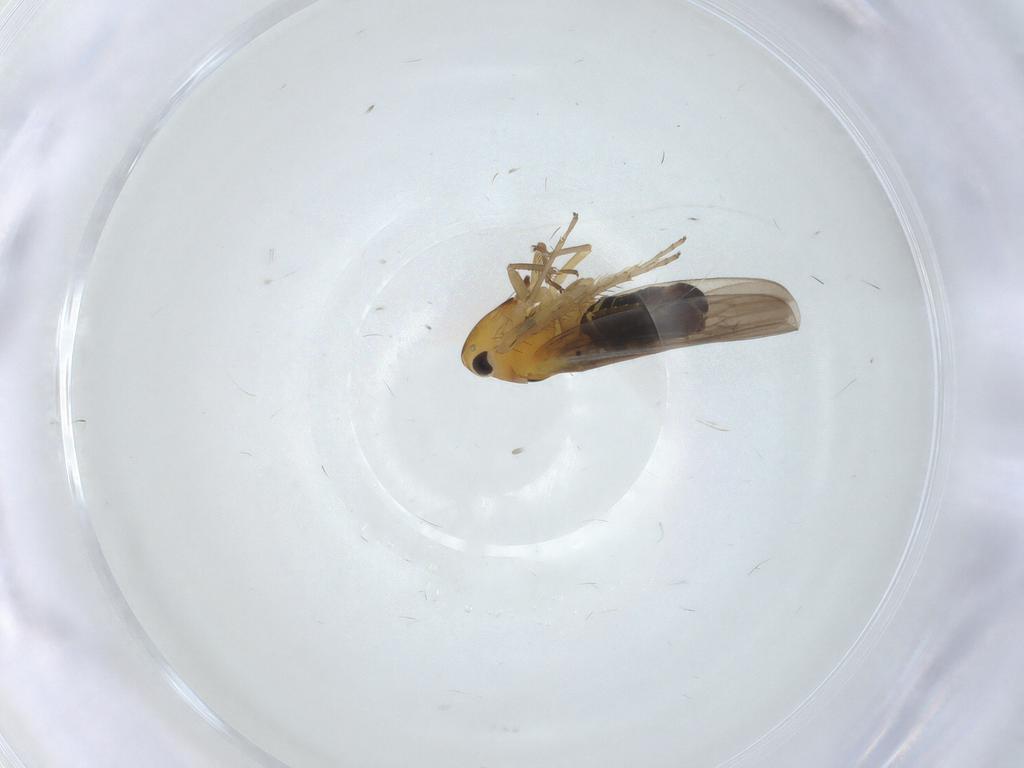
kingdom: Animalia
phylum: Arthropoda
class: Insecta
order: Hemiptera
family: Cicadellidae
